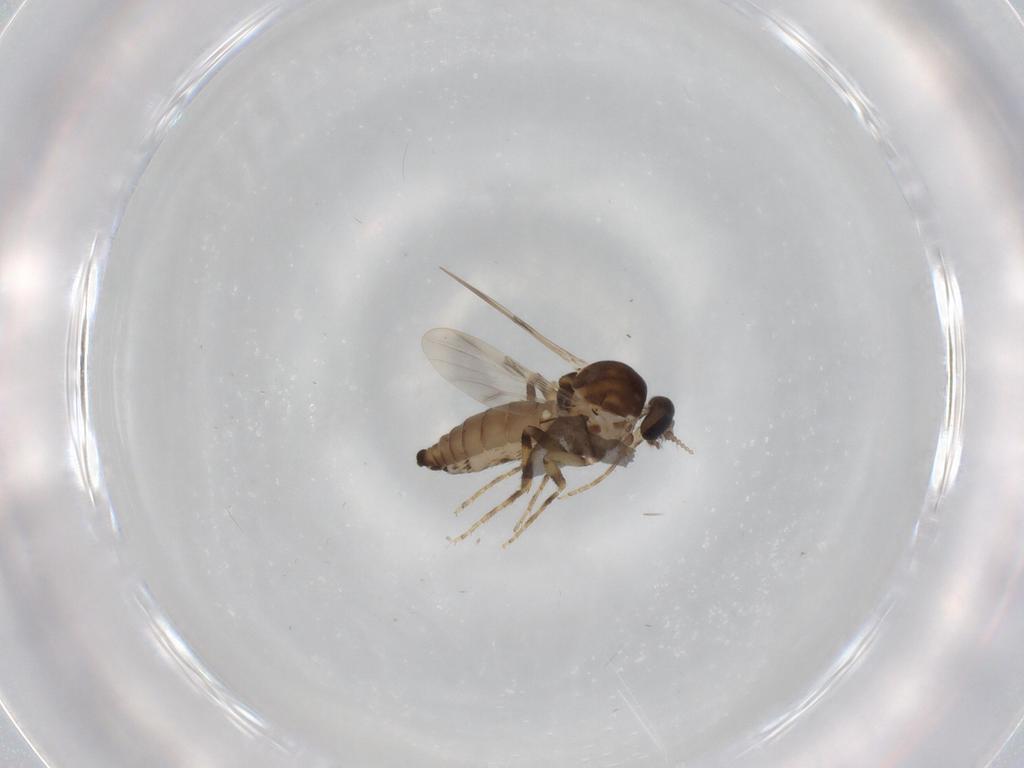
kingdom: Animalia
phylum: Arthropoda
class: Insecta
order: Diptera
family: Ceratopogonidae
